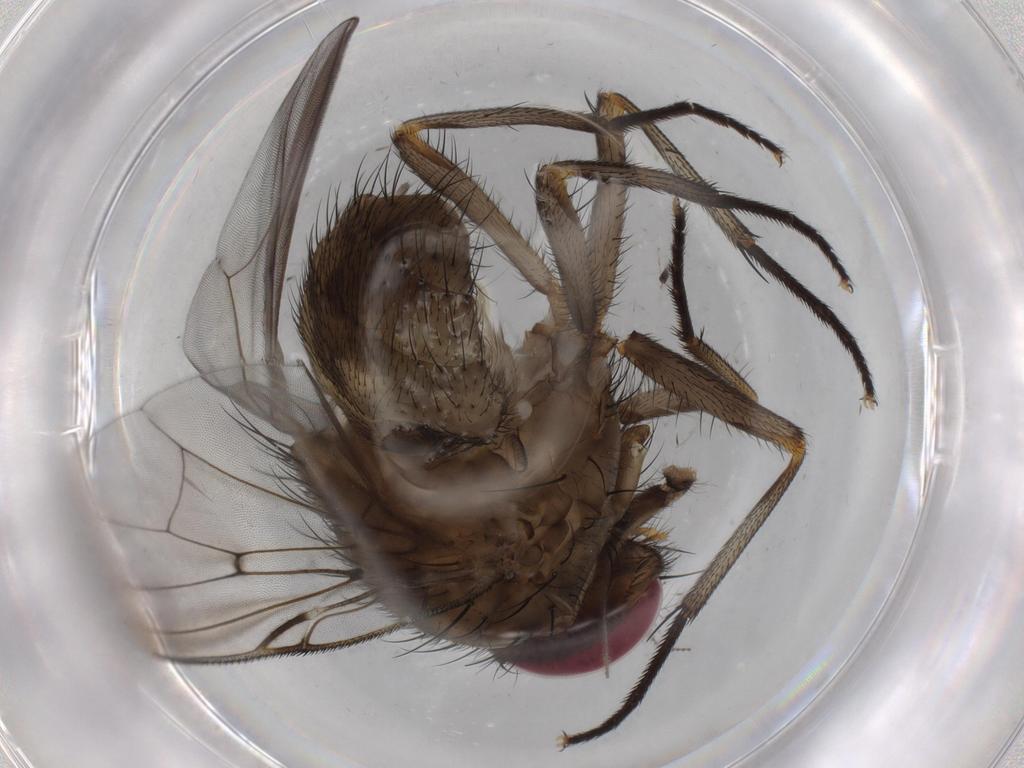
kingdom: Animalia
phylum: Arthropoda
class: Insecta
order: Diptera
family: Muscidae
